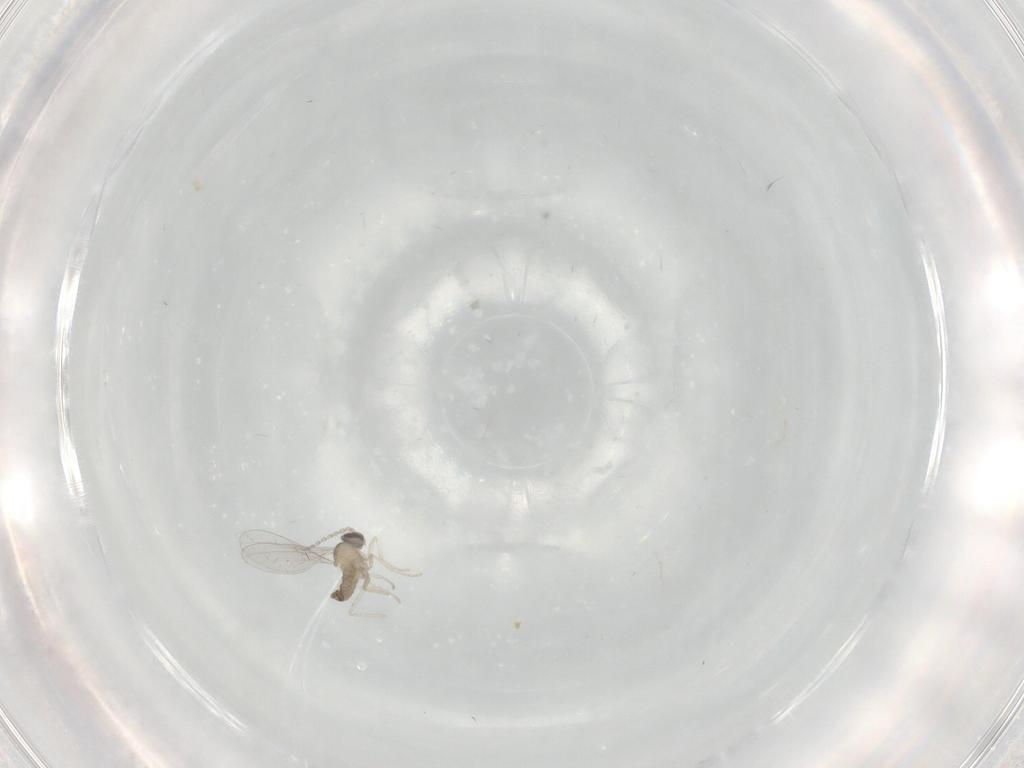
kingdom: Animalia
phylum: Arthropoda
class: Insecta
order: Diptera
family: Cecidomyiidae
